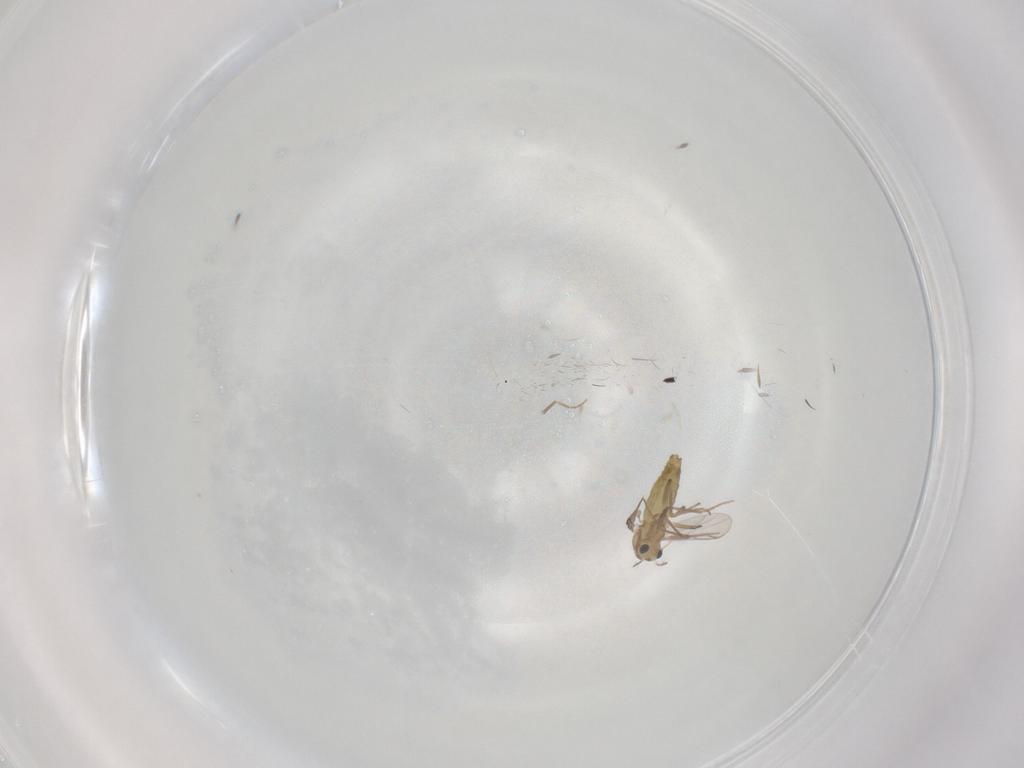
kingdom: Animalia
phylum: Arthropoda
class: Insecta
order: Diptera
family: Chironomidae
